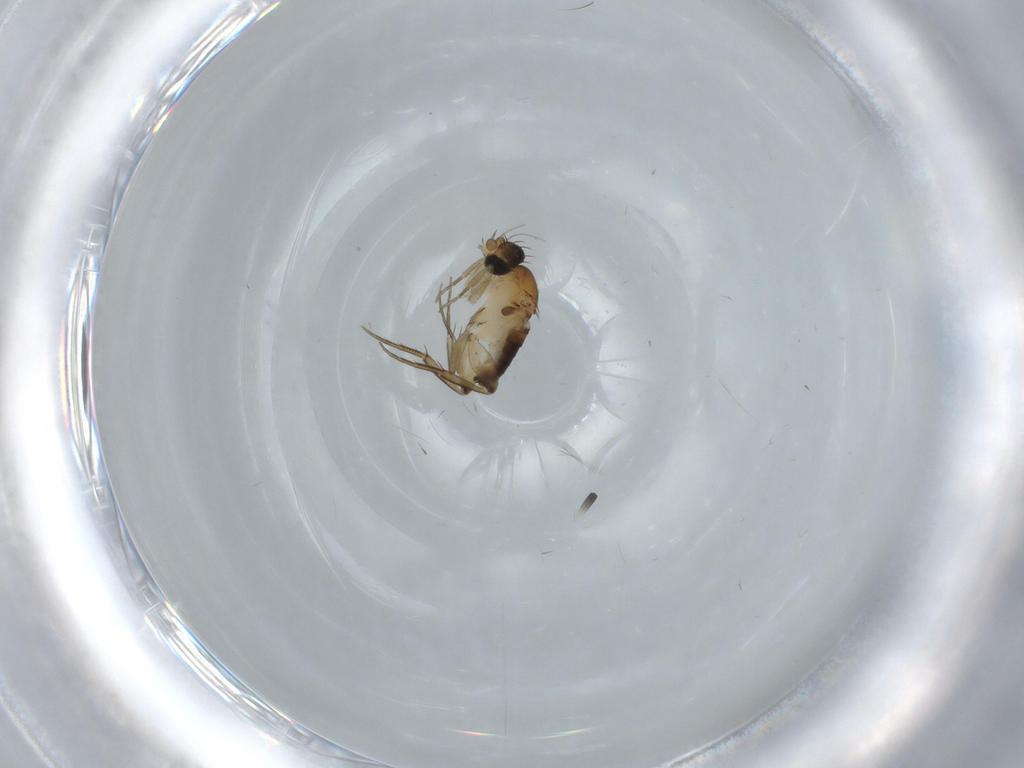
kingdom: Animalia
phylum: Arthropoda
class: Insecta
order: Diptera
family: Phoridae
